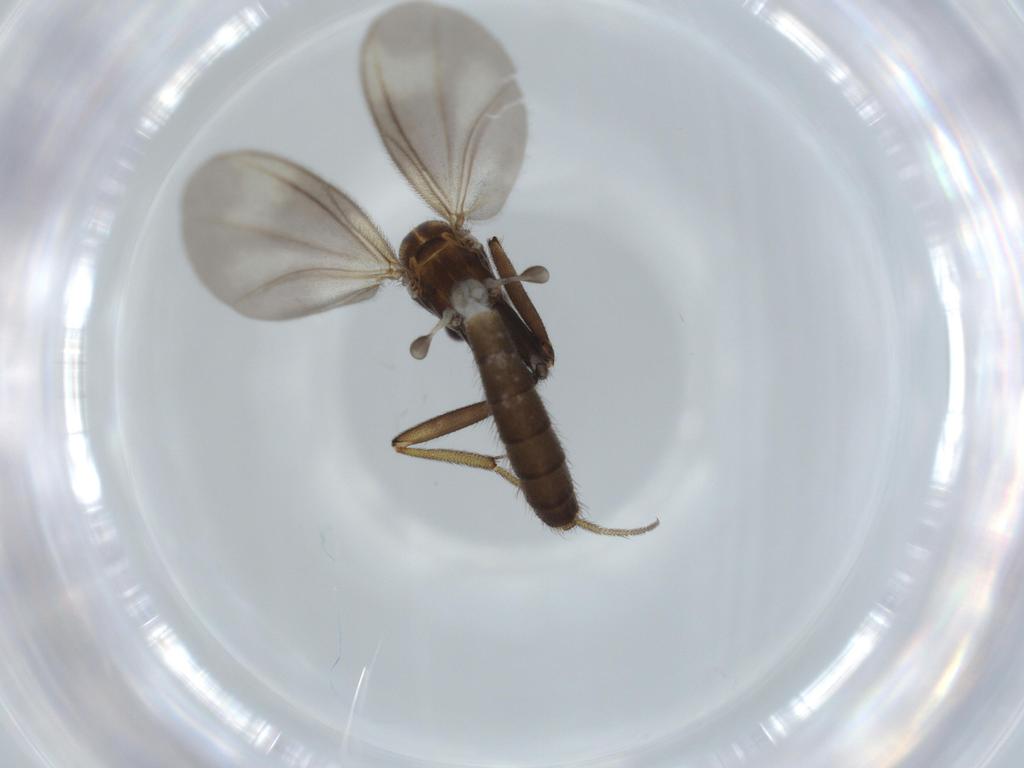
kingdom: Animalia
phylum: Arthropoda
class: Insecta
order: Diptera
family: Sciaridae
